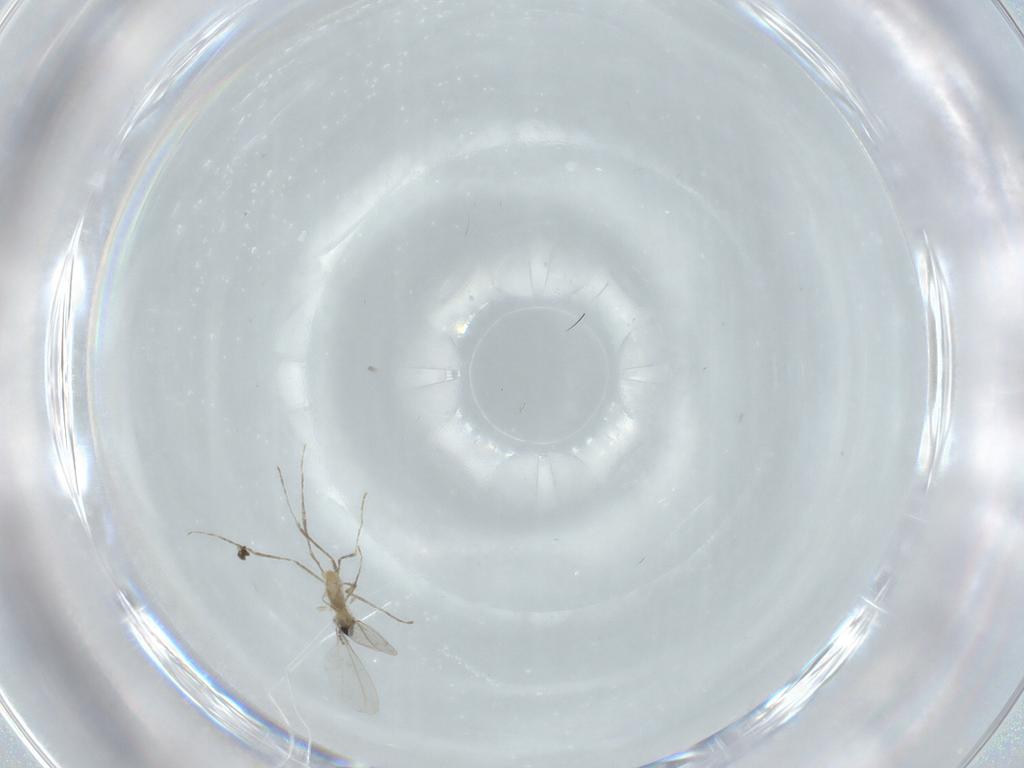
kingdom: Animalia
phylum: Arthropoda
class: Insecta
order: Diptera
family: Cecidomyiidae
